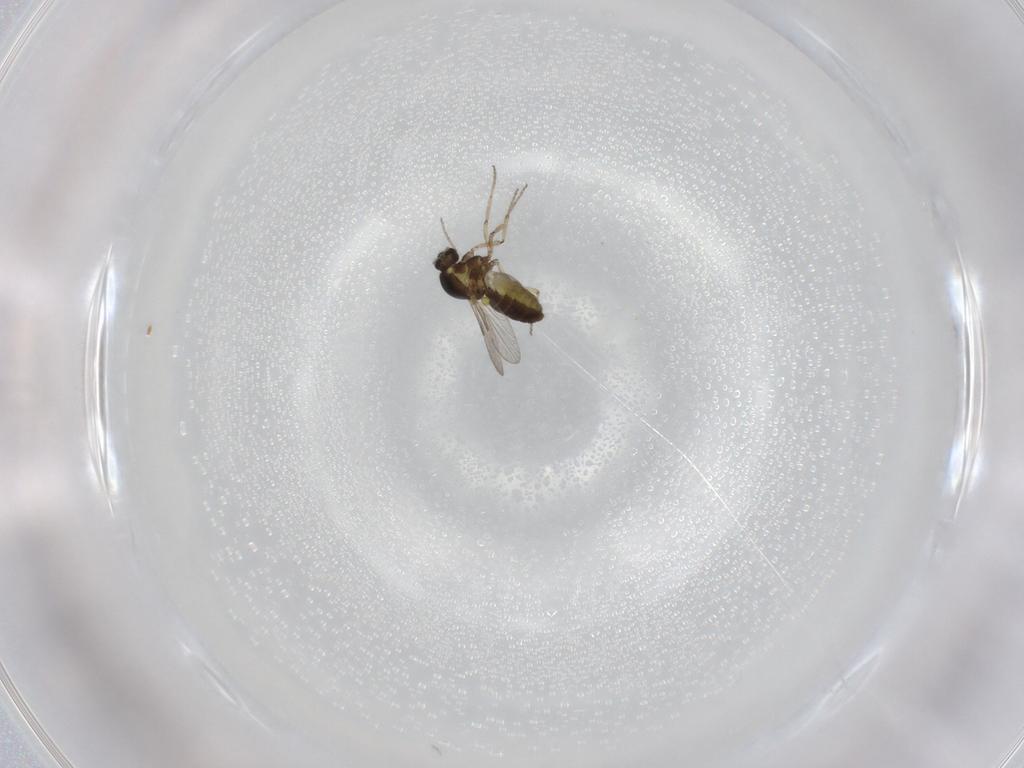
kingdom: Animalia
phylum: Arthropoda
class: Insecta
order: Diptera
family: Ceratopogonidae
